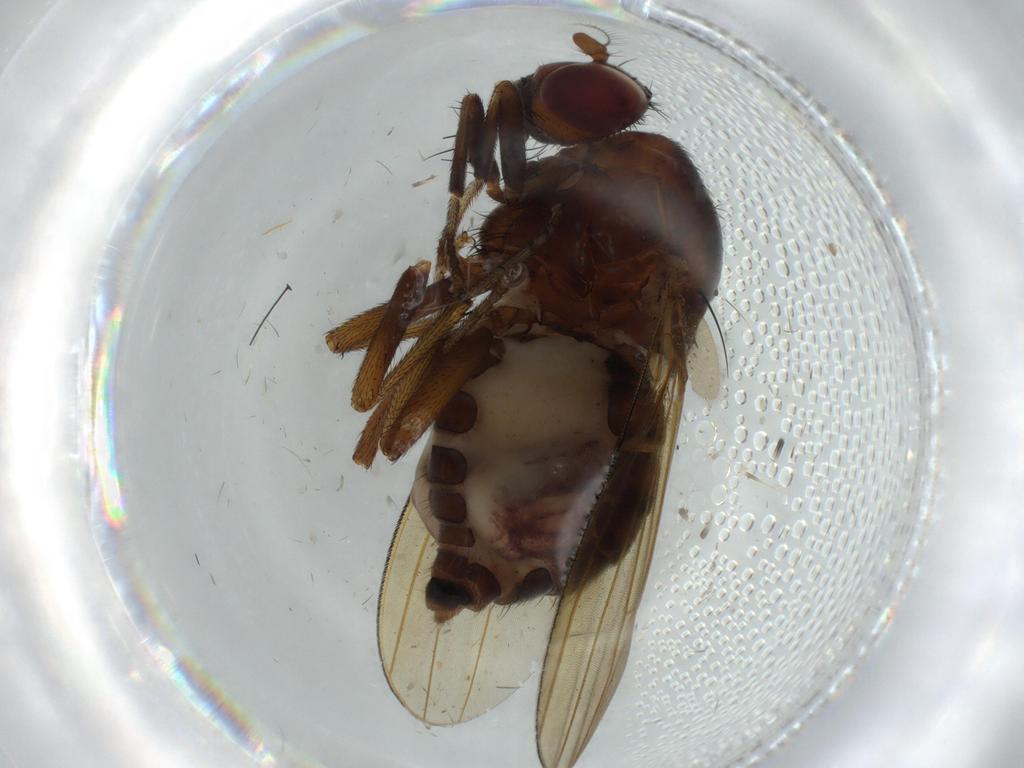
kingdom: Animalia
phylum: Arthropoda
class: Insecta
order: Diptera
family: Sciaridae
